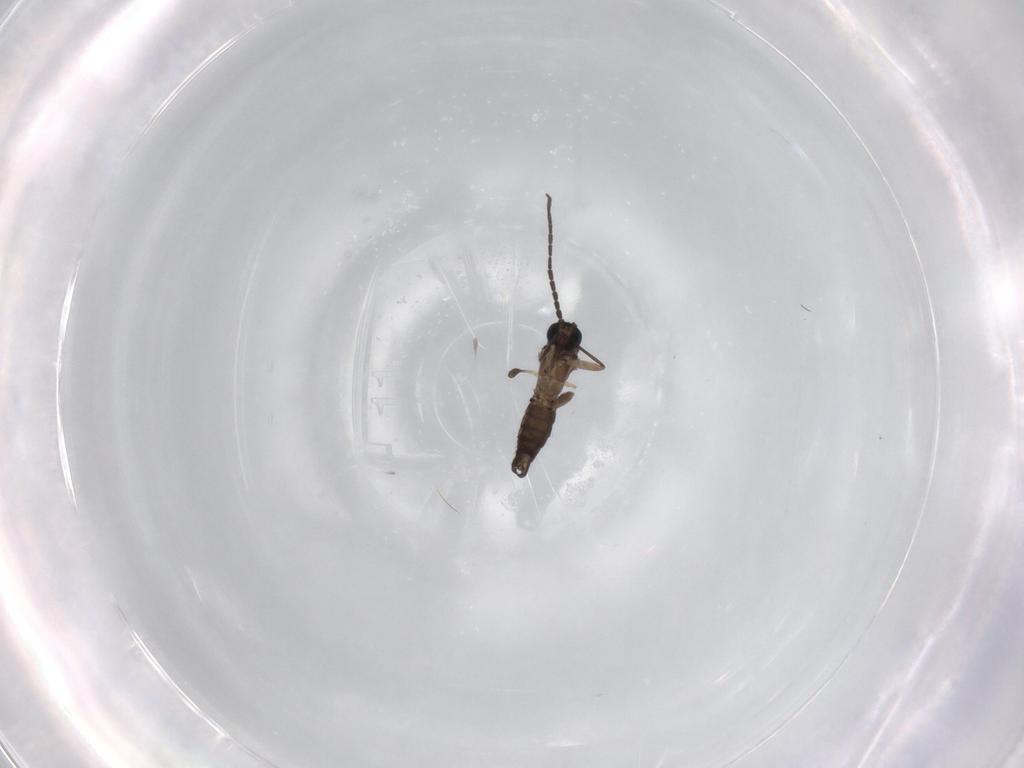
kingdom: Animalia
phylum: Arthropoda
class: Insecta
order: Diptera
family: Sciaridae
